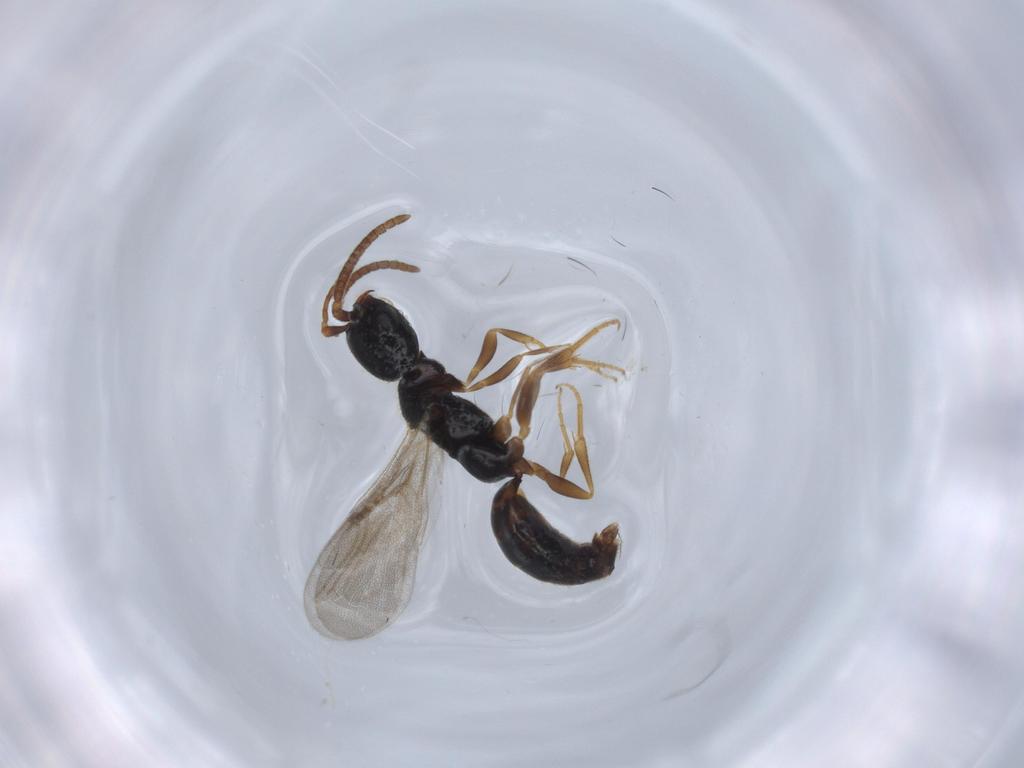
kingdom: Animalia
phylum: Arthropoda
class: Insecta
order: Hymenoptera
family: Bethylidae
